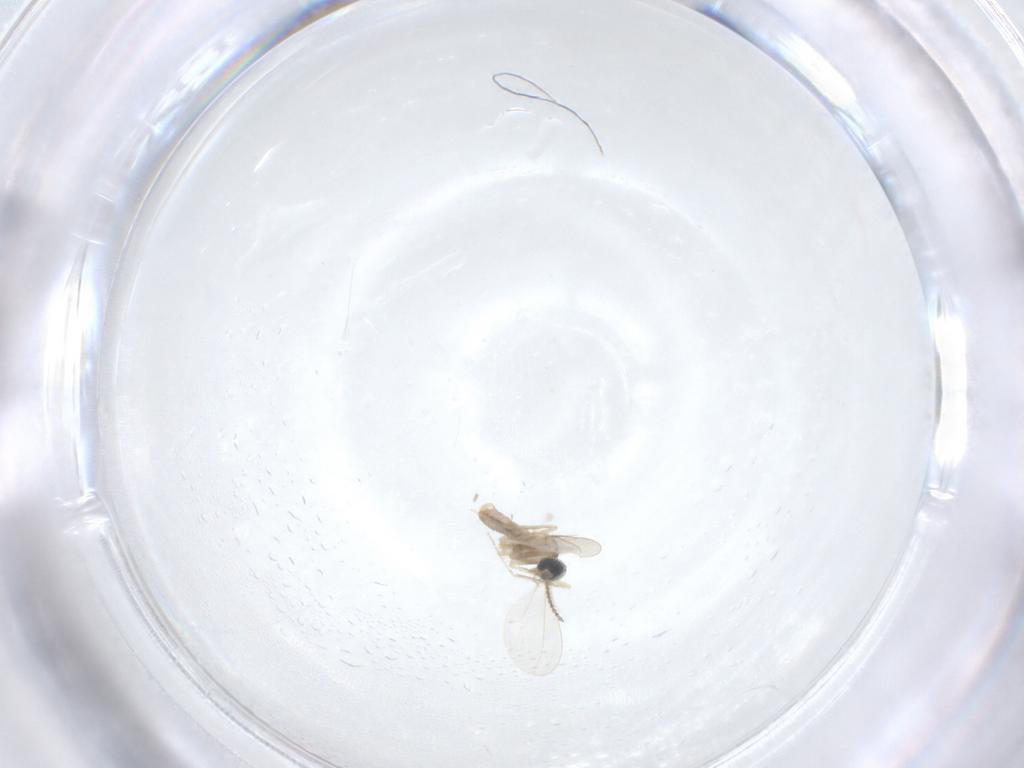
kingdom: Animalia
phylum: Arthropoda
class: Insecta
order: Diptera
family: Cecidomyiidae
